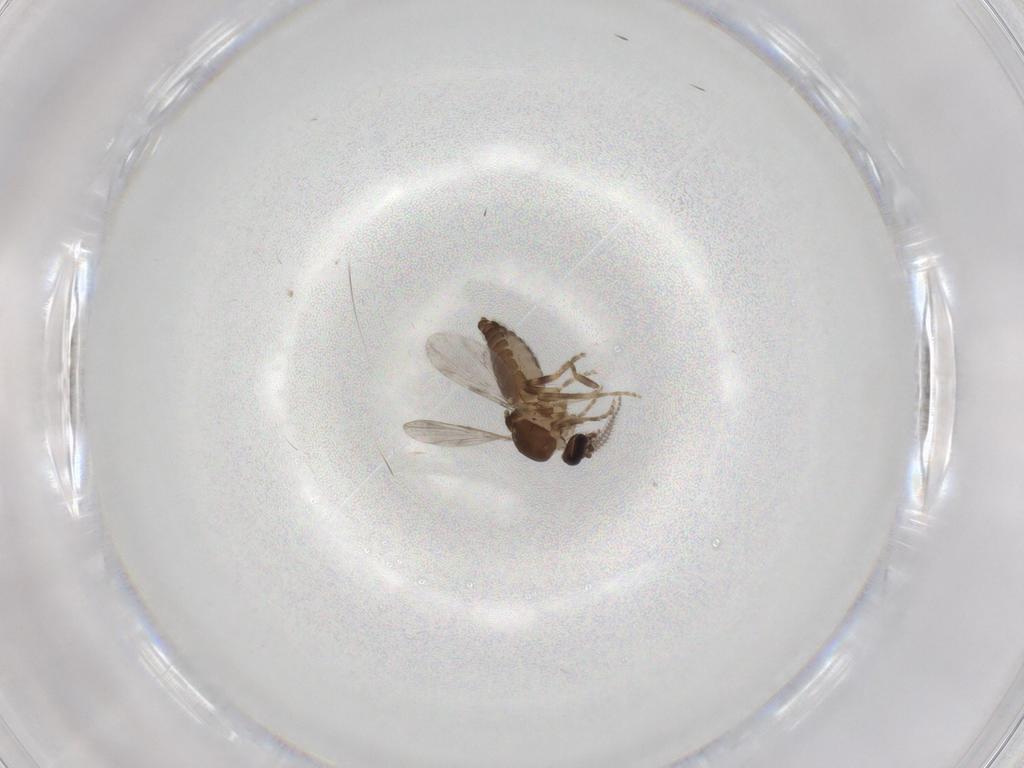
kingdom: Animalia
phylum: Arthropoda
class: Insecta
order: Diptera
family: Ceratopogonidae
